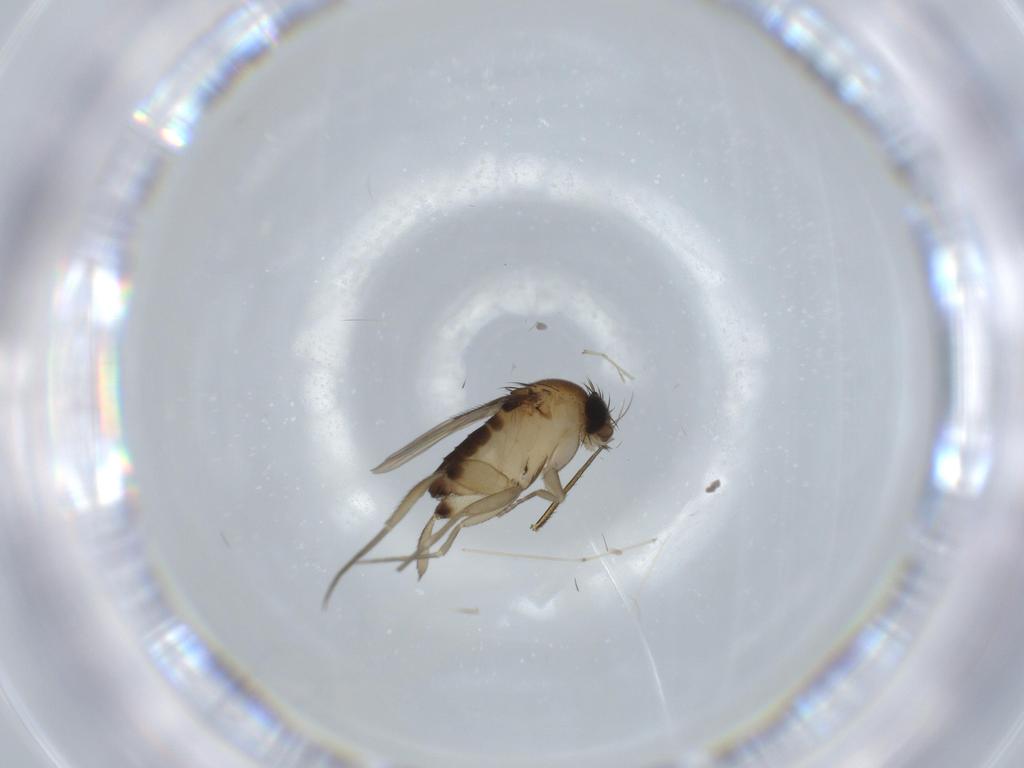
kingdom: Animalia
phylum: Arthropoda
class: Insecta
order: Diptera
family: Phoridae
